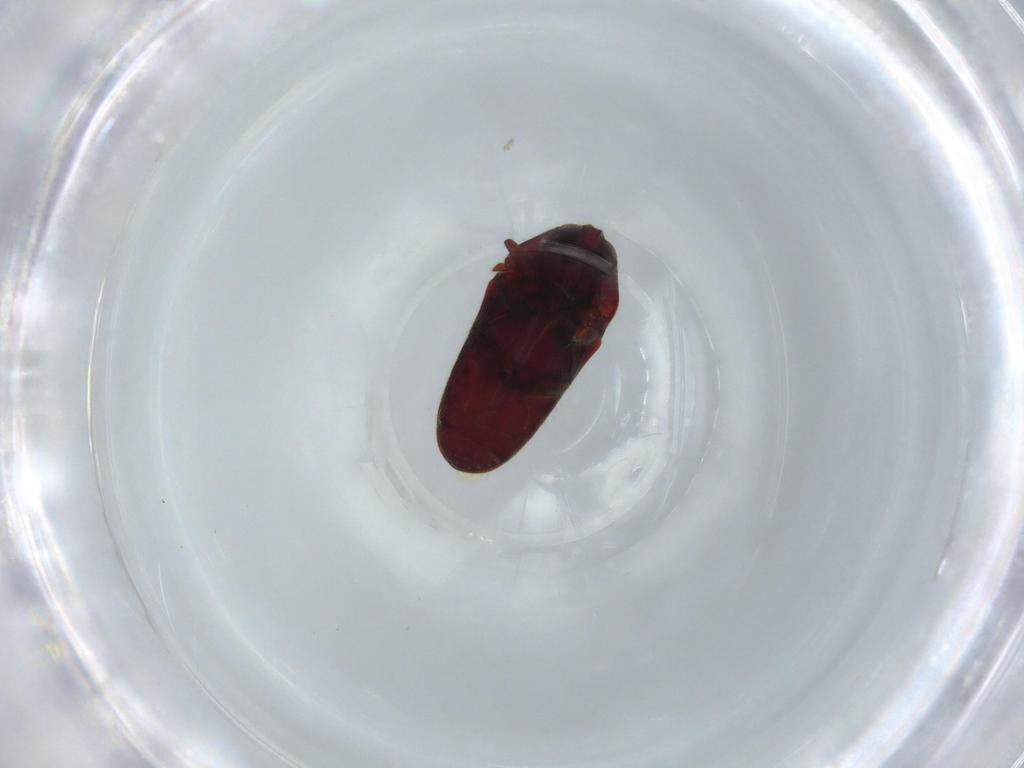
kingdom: Animalia
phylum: Arthropoda
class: Insecta
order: Coleoptera
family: Throscidae
